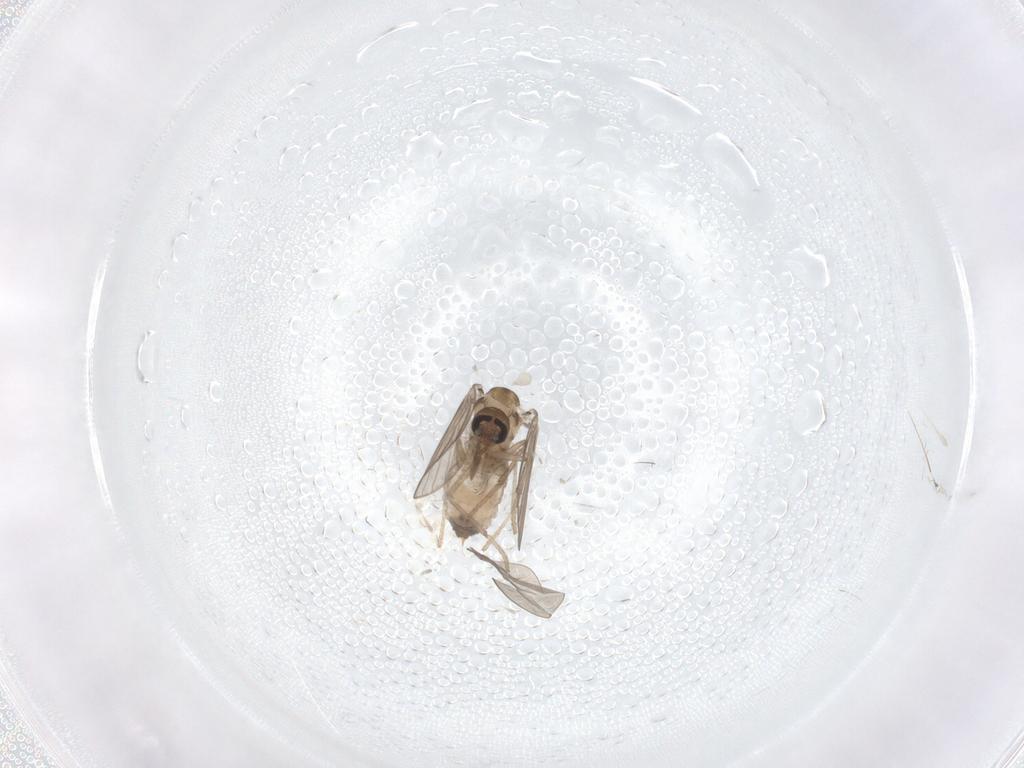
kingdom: Animalia
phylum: Arthropoda
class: Insecta
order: Diptera
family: Psychodidae
